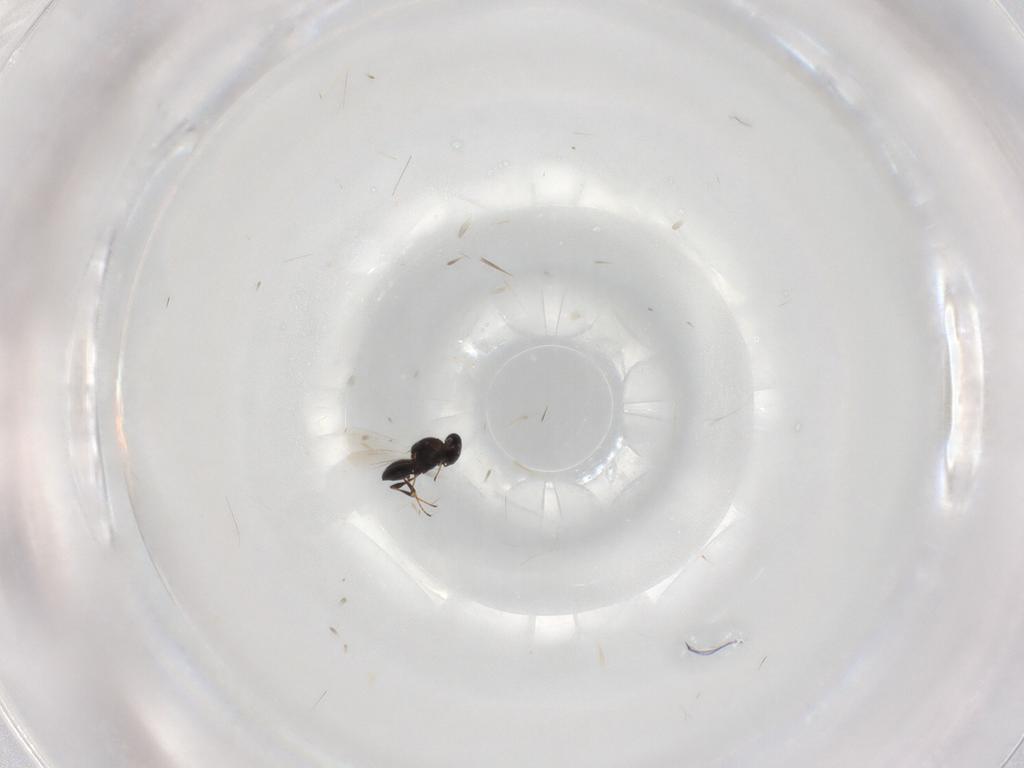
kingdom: Animalia
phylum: Arthropoda
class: Insecta
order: Hymenoptera
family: Platygastridae
